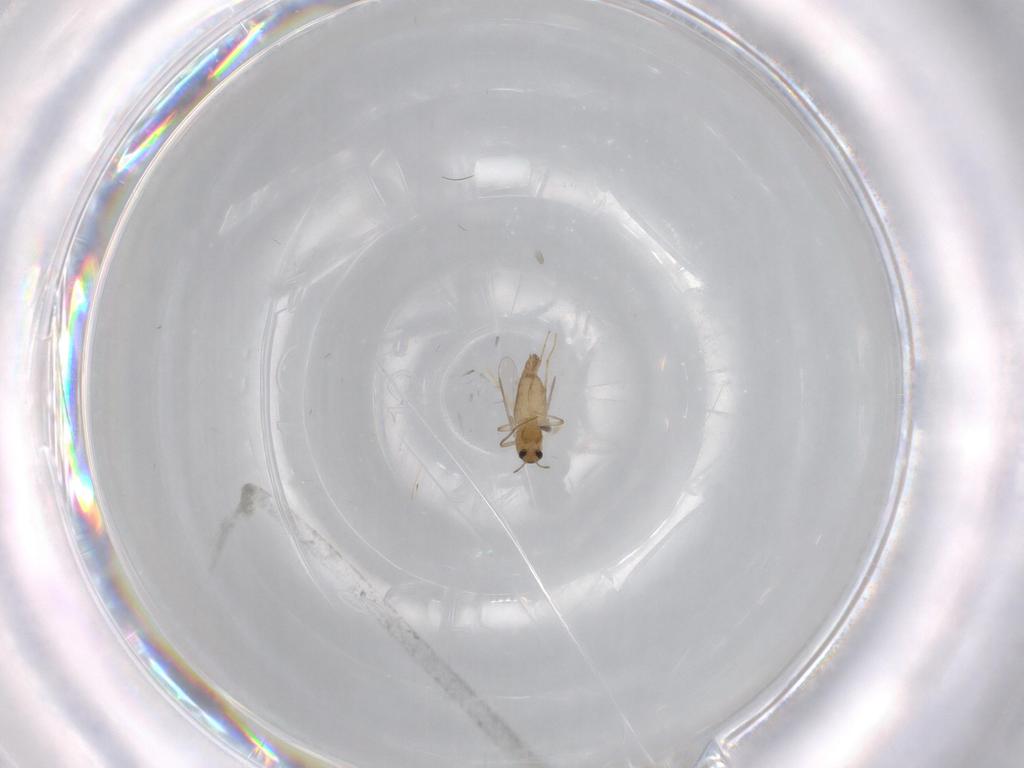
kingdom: Animalia
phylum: Arthropoda
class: Insecta
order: Diptera
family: Chironomidae
